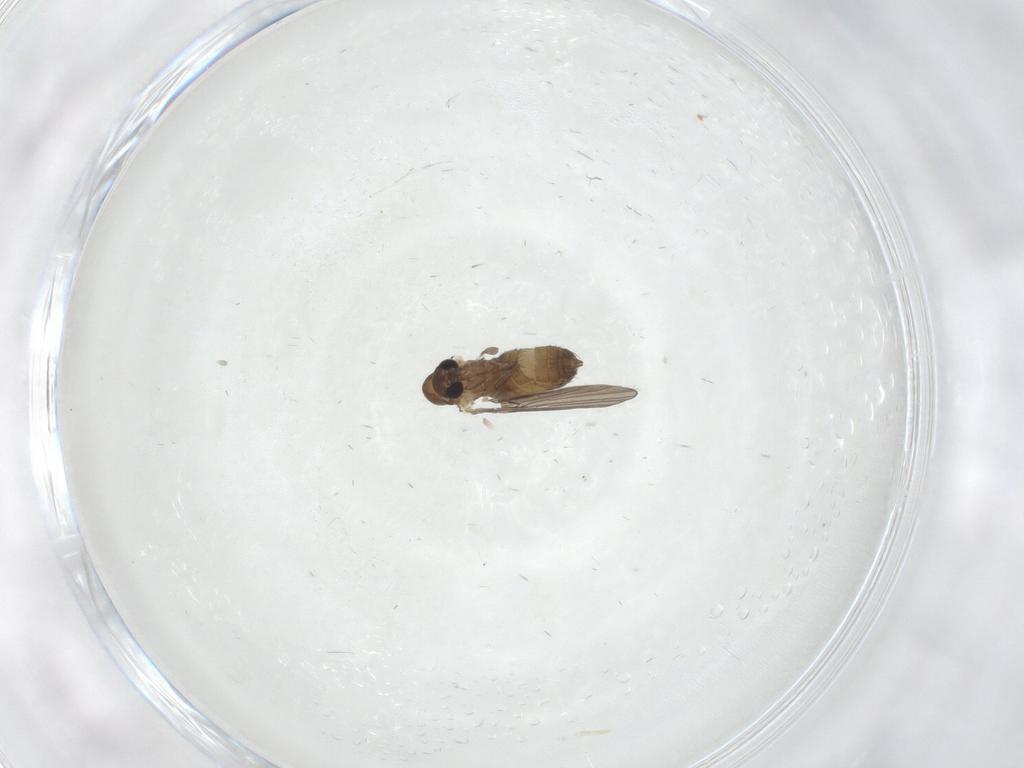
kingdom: Animalia
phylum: Arthropoda
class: Insecta
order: Diptera
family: Psychodidae
